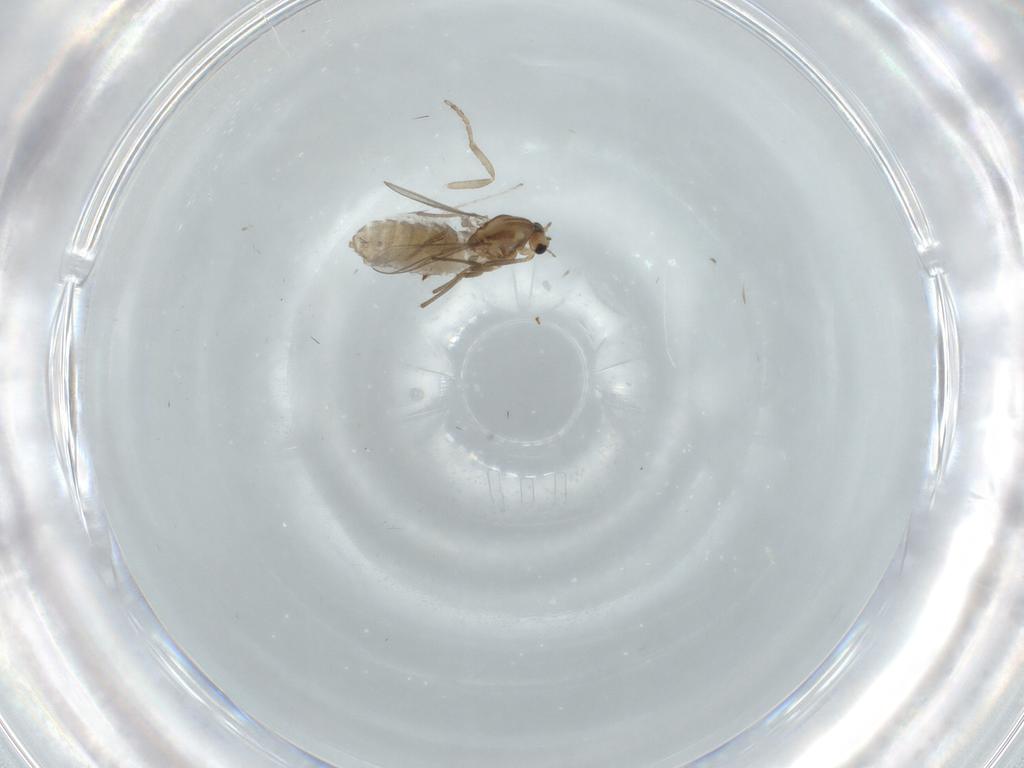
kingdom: Animalia
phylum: Arthropoda
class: Insecta
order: Diptera
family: Chironomidae
